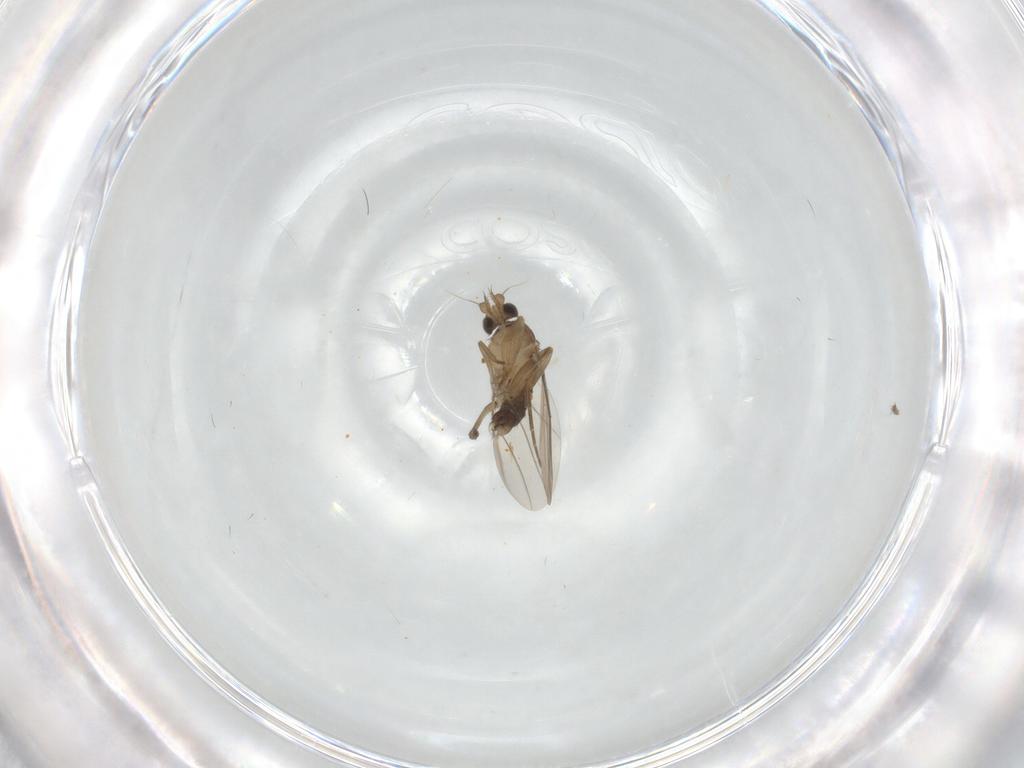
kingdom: Animalia
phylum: Arthropoda
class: Insecta
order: Diptera
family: Phoridae
